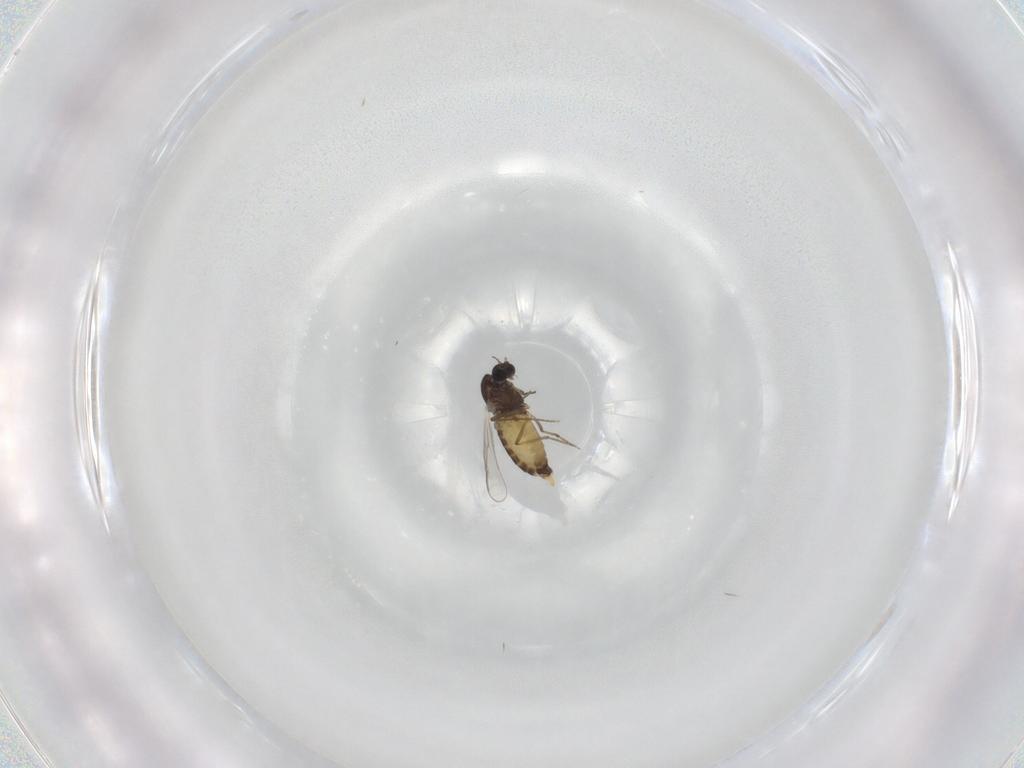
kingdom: Animalia
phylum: Arthropoda
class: Insecta
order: Diptera
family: Chironomidae
